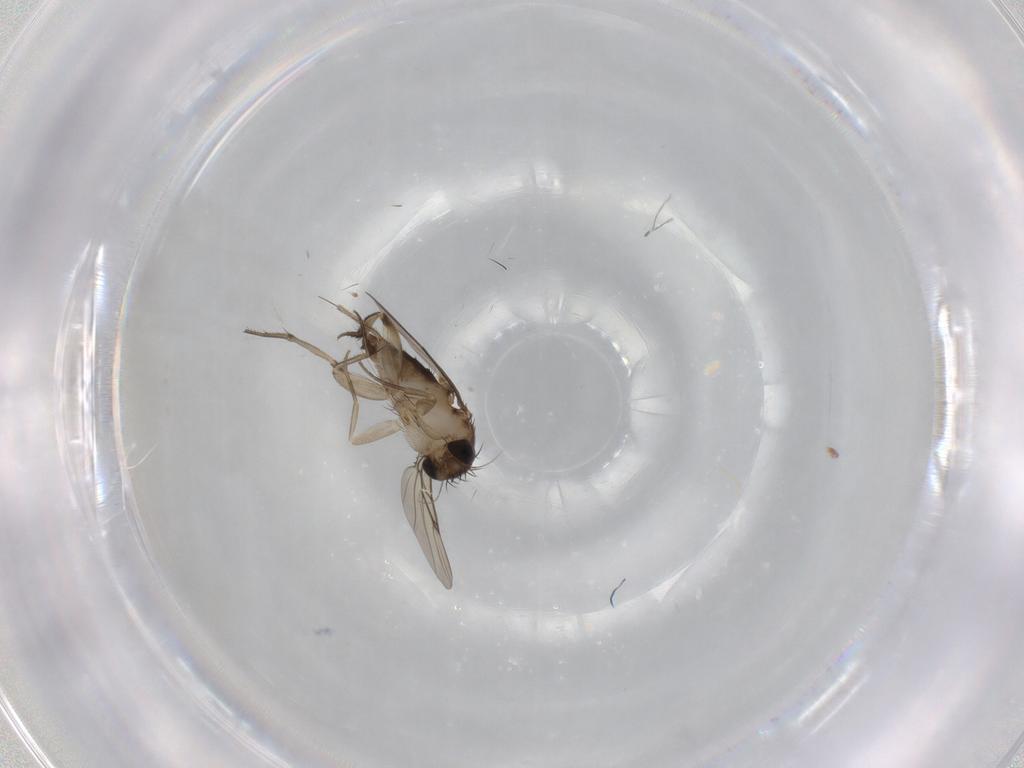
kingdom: Animalia
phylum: Arthropoda
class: Insecta
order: Diptera
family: Phoridae
